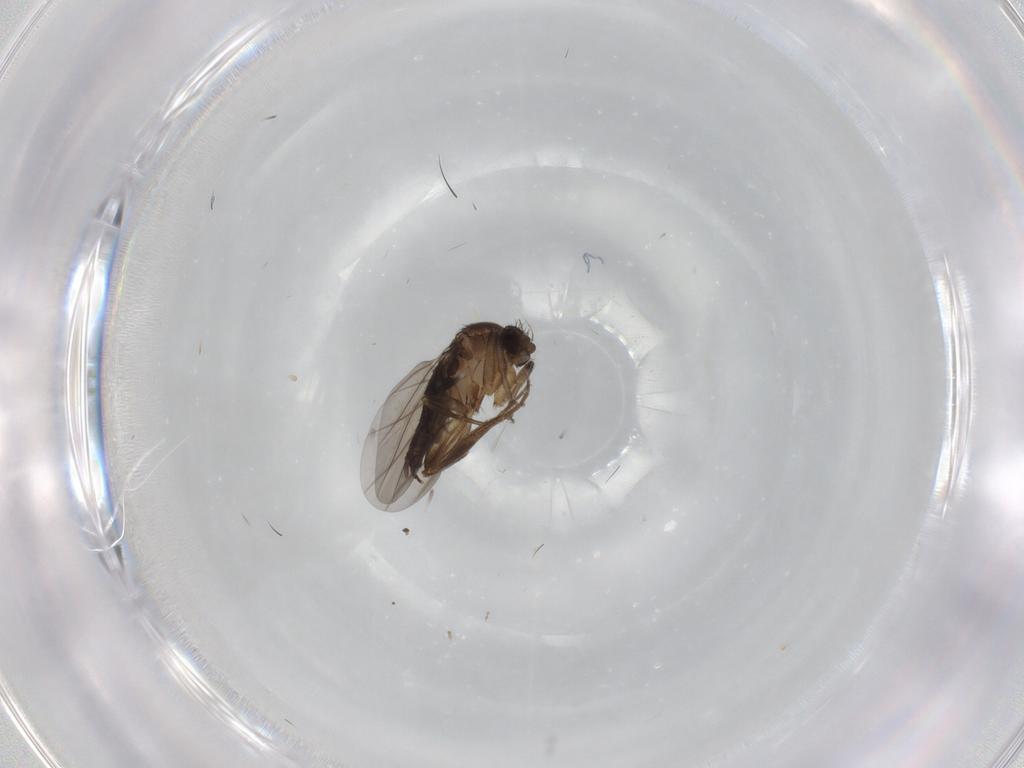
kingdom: Animalia
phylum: Arthropoda
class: Insecta
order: Diptera
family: Phoridae
